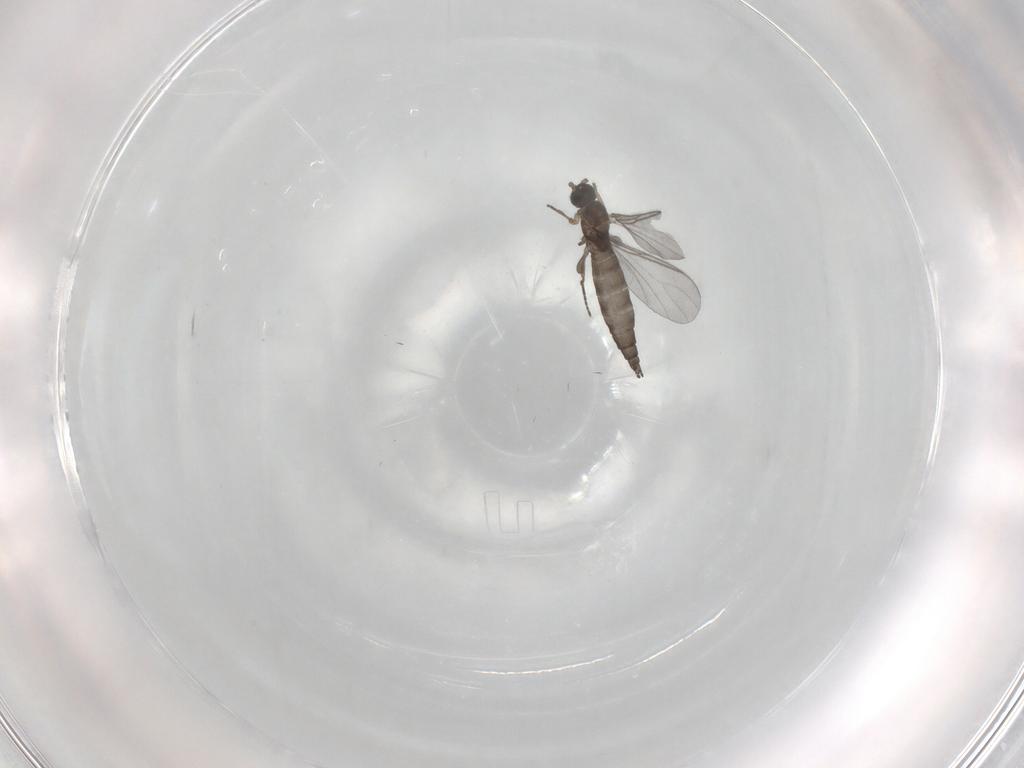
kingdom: Animalia
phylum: Arthropoda
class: Insecta
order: Diptera
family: Sciaridae
